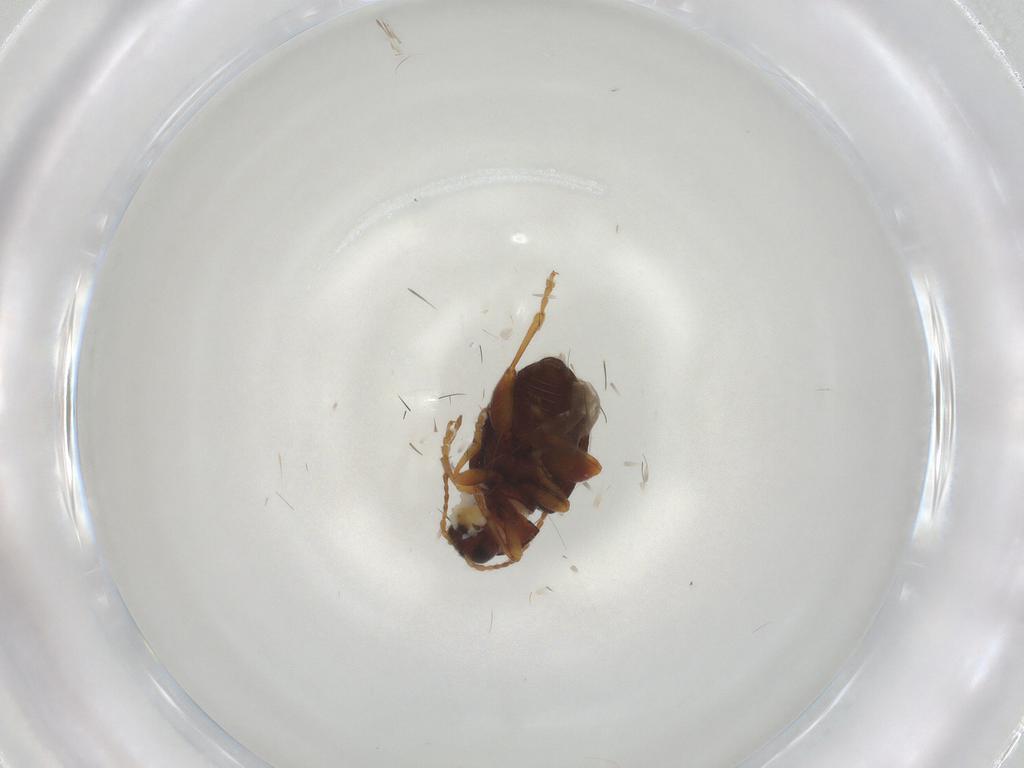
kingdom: Animalia
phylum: Arthropoda
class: Insecta
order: Coleoptera
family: Chrysomelidae
